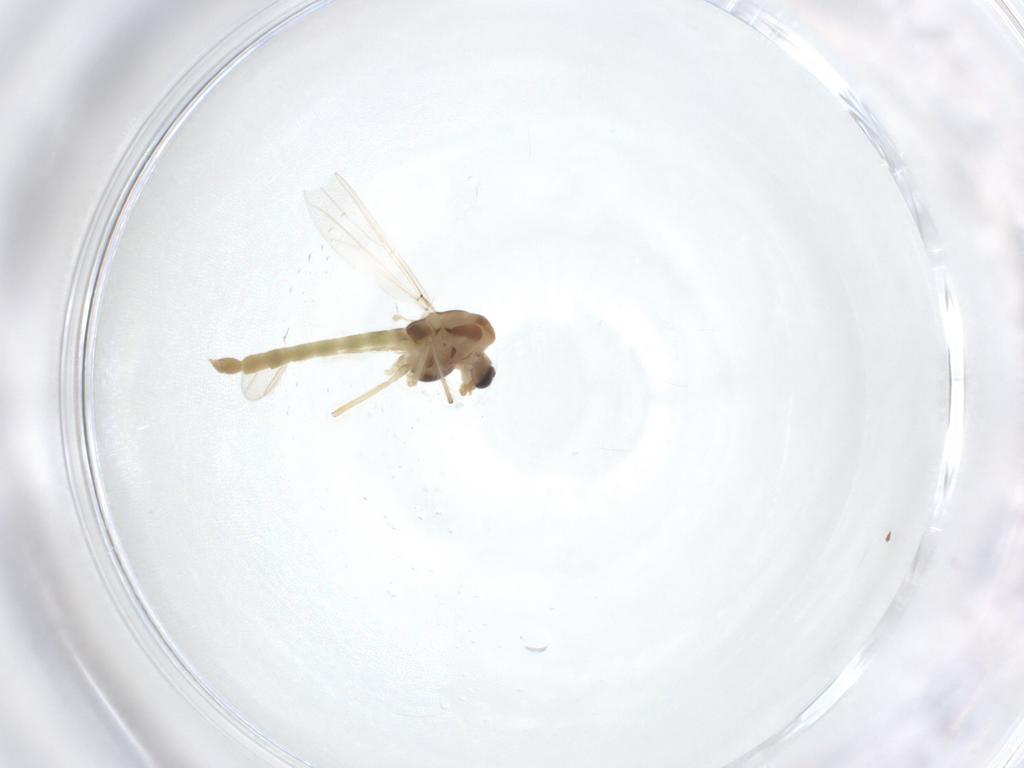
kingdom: Animalia
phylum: Arthropoda
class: Insecta
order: Diptera
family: Chironomidae
